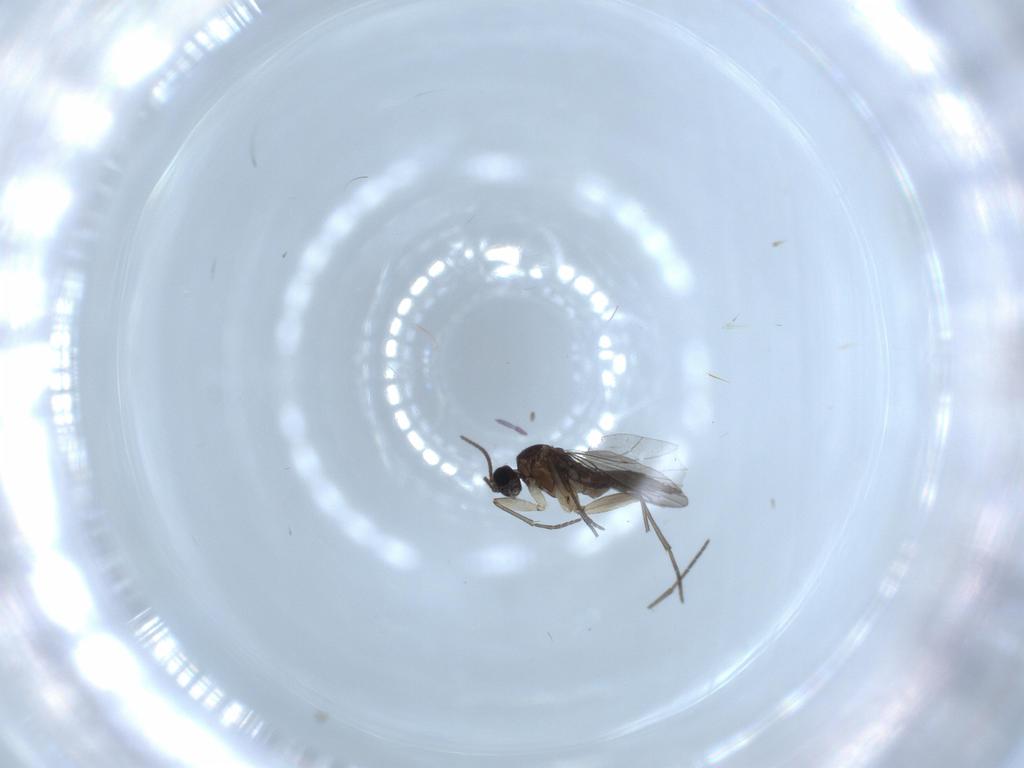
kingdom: Animalia
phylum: Arthropoda
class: Insecta
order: Diptera
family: Sciaridae
